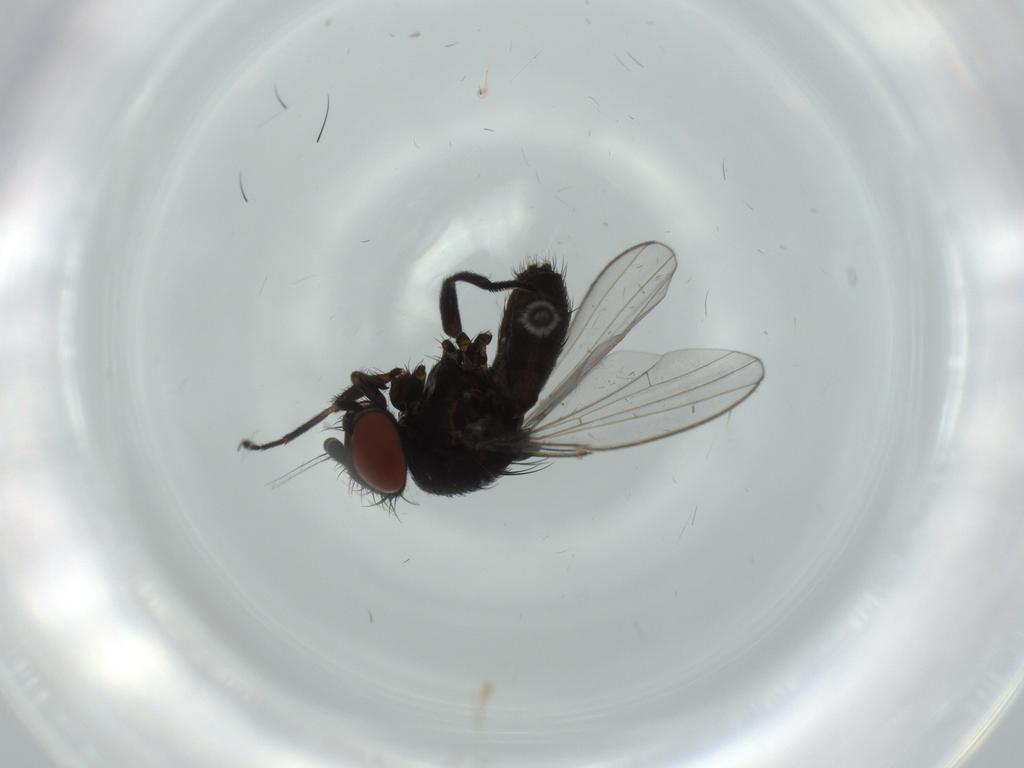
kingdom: Animalia
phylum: Arthropoda
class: Insecta
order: Diptera
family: Milichiidae
